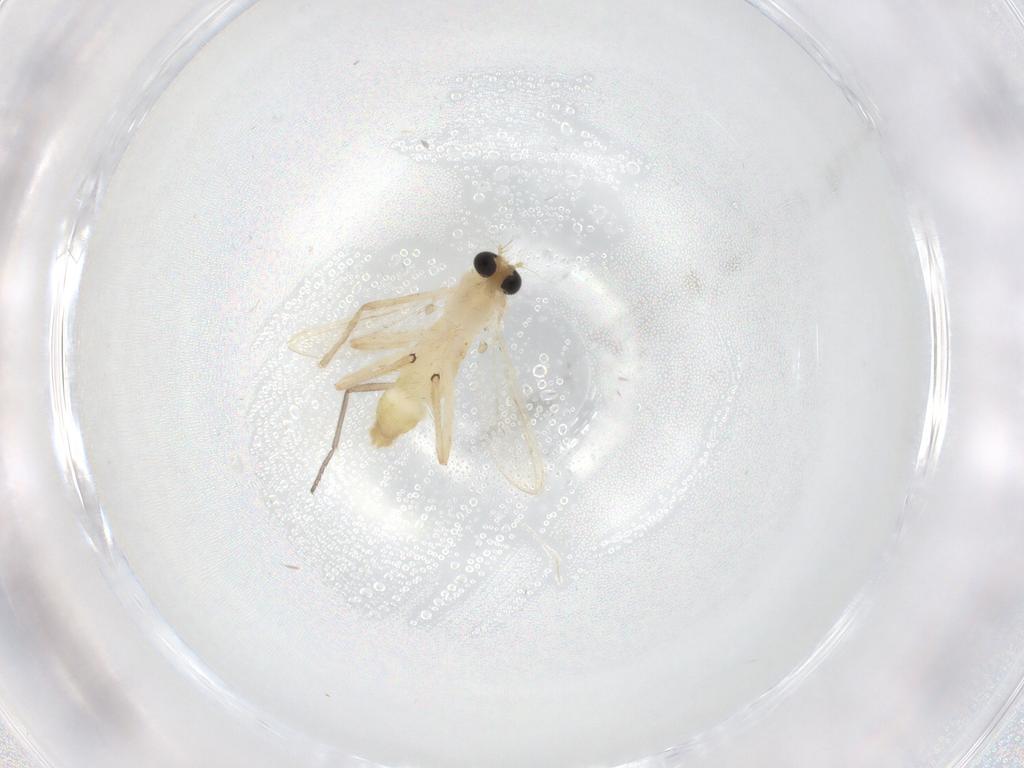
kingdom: Animalia
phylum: Arthropoda
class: Insecta
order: Diptera
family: Chironomidae
